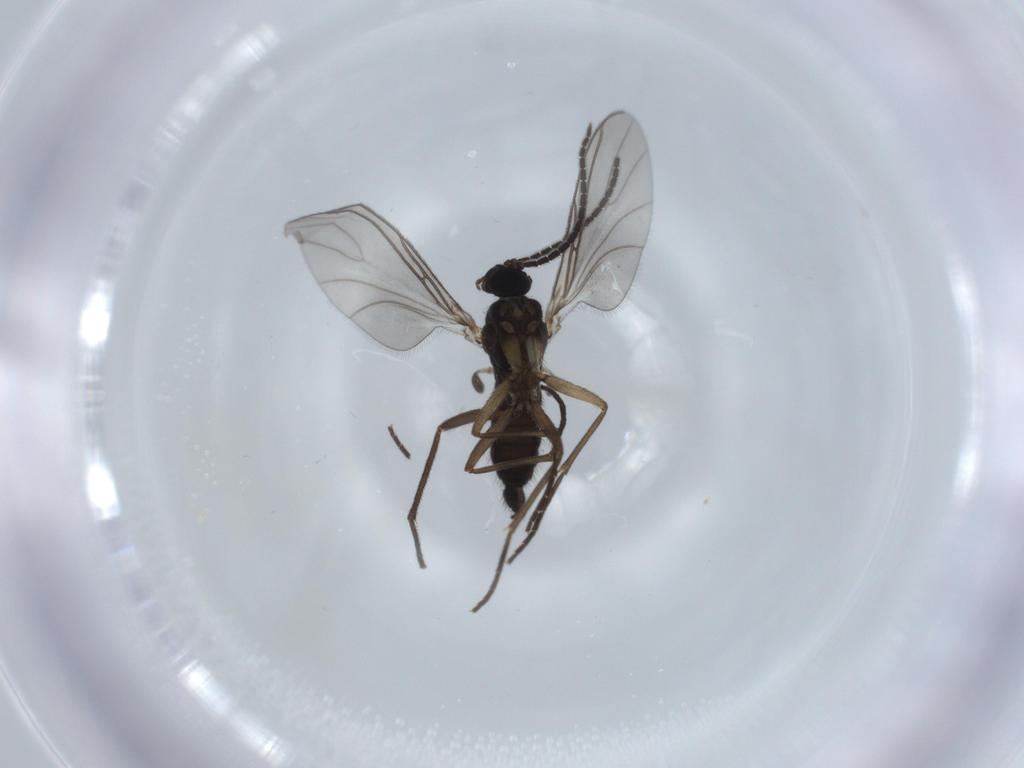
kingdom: Animalia
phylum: Arthropoda
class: Insecta
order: Diptera
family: Sciaridae
